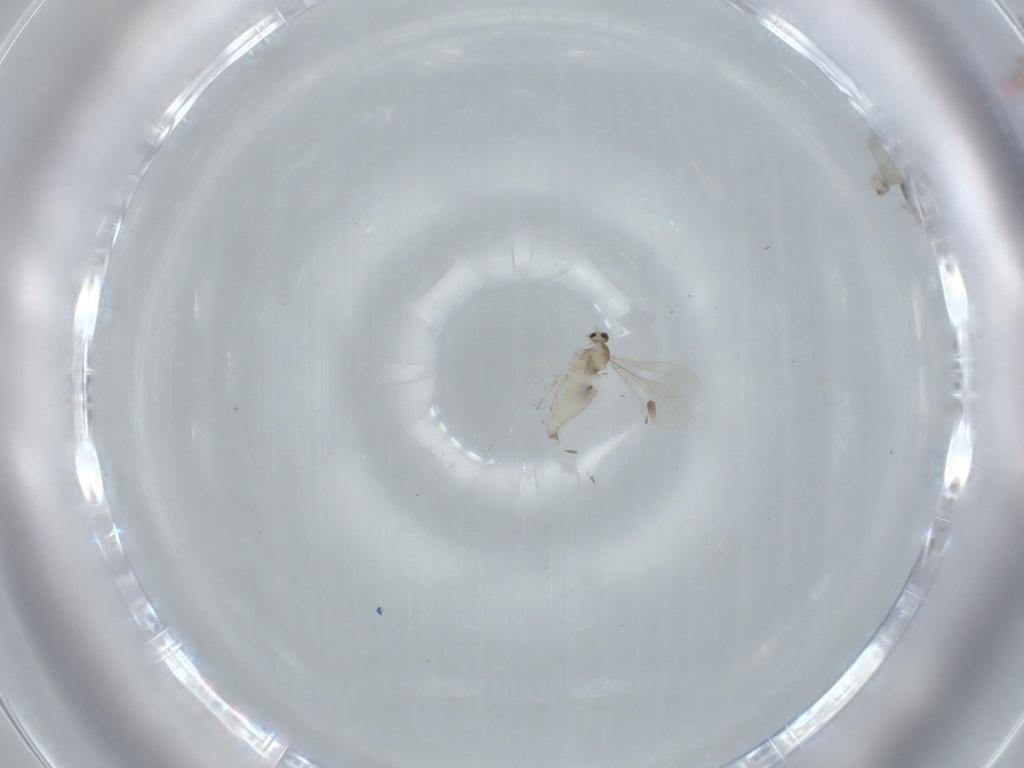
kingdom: Animalia
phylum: Arthropoda
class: Insecta
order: Diptera
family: Cecidomyiidae
